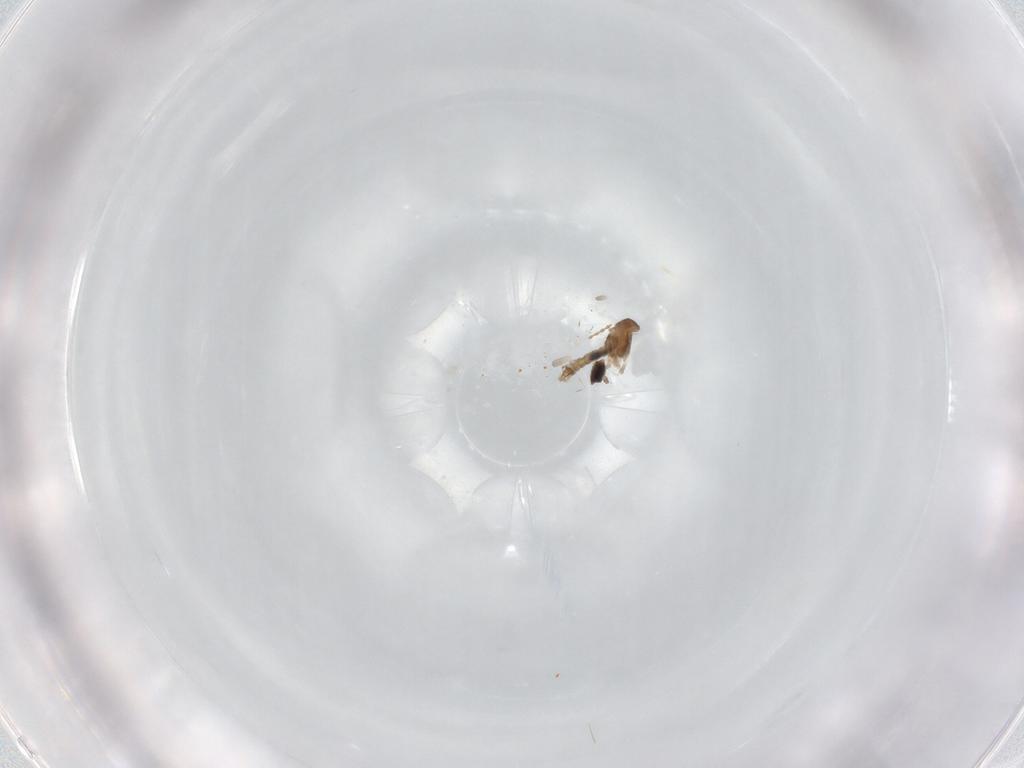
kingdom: Animalia
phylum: Arthropoda
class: Insecta
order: Diptera
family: Cecidomyiidae
